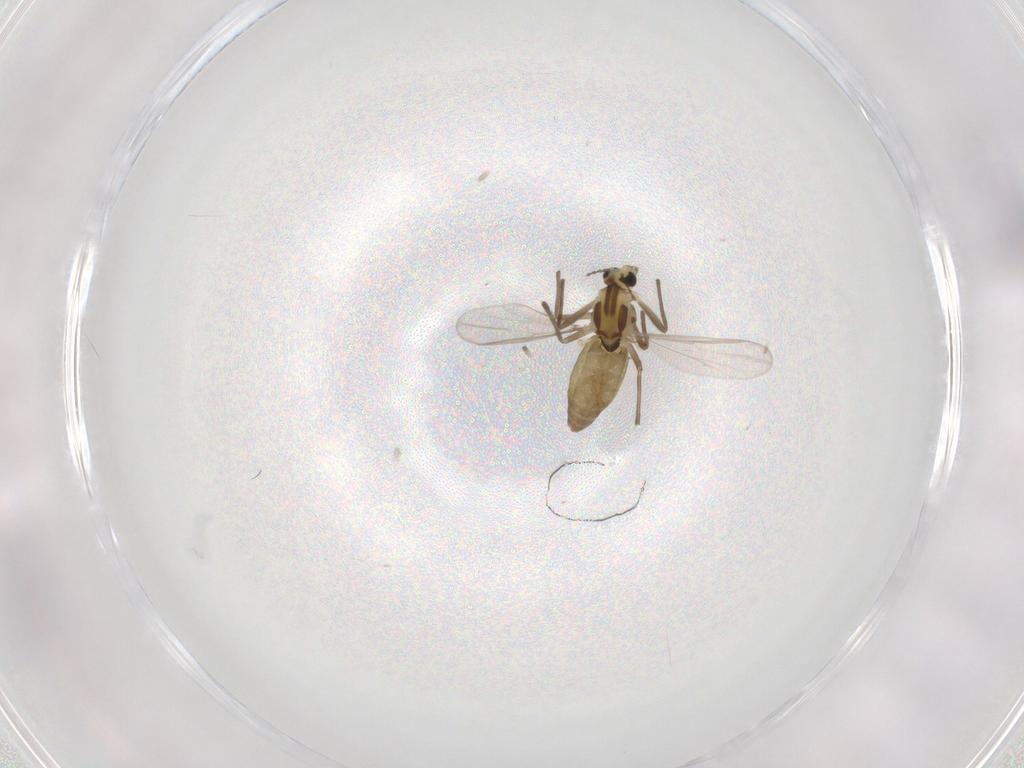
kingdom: Animalia
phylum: Arthropoda
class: Insecta
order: Diptera
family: Chironomidae
